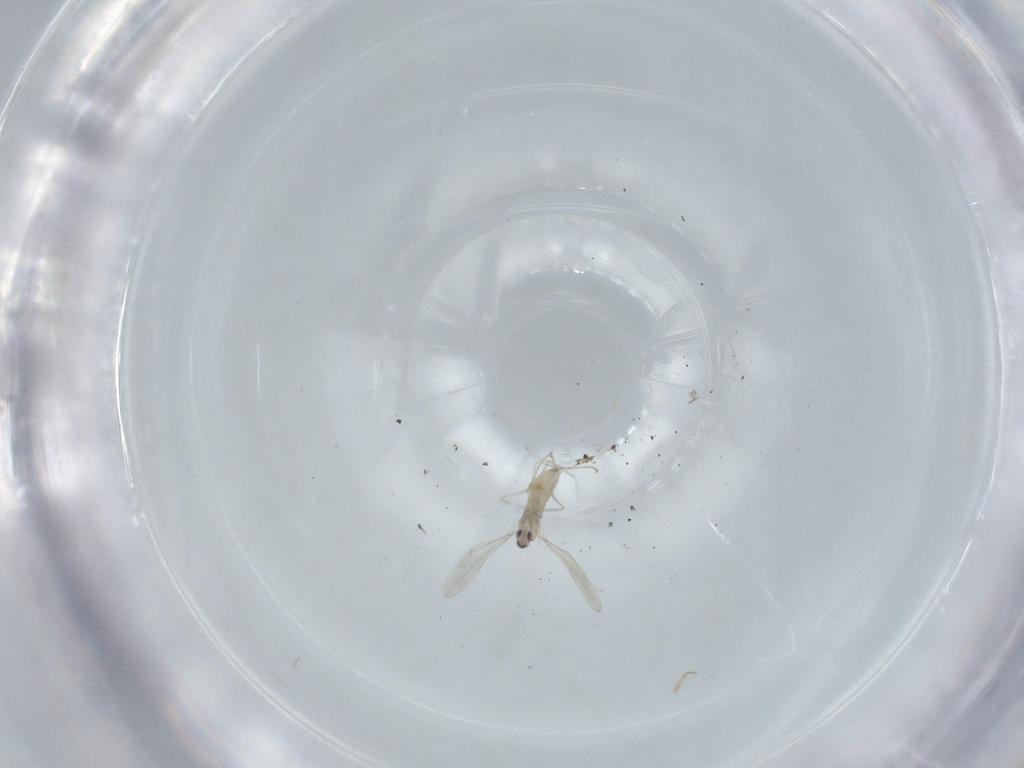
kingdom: Animalia
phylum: Arthropoda
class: Insecta
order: Diptera
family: Cecidomyiidae
